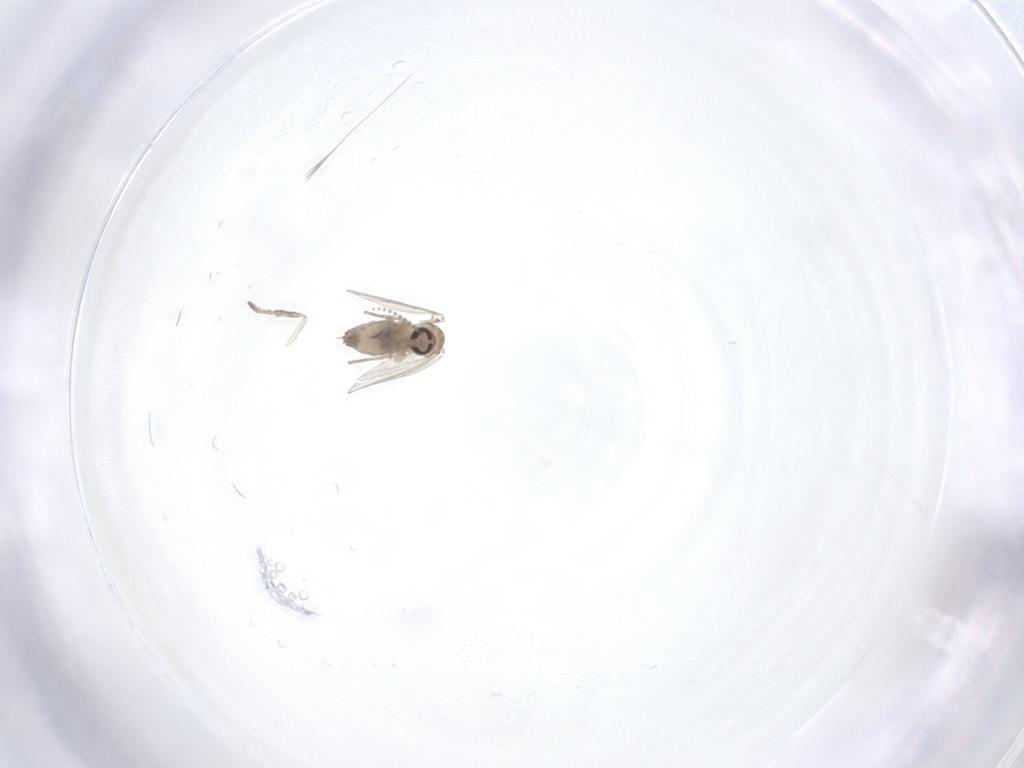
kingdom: Animalia
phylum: Arthropoda
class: Insecta
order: Diptera
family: Psychodidae
